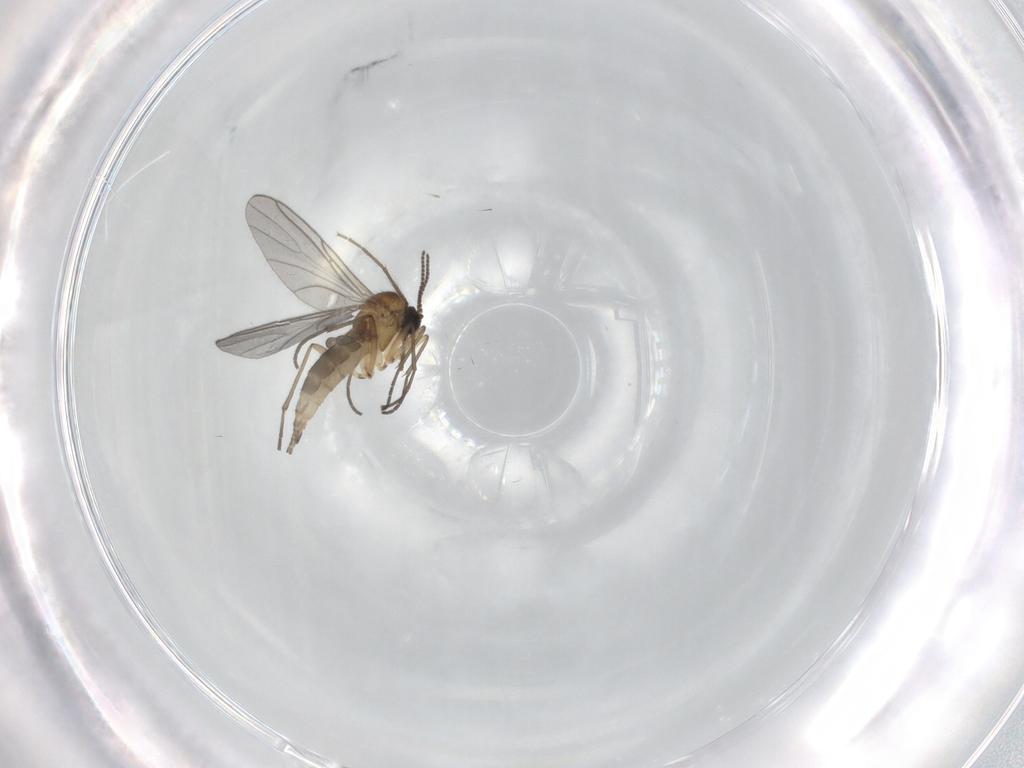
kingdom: Animalia
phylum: Arthropoda
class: Insecta
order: Diptera
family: Sciaridae
